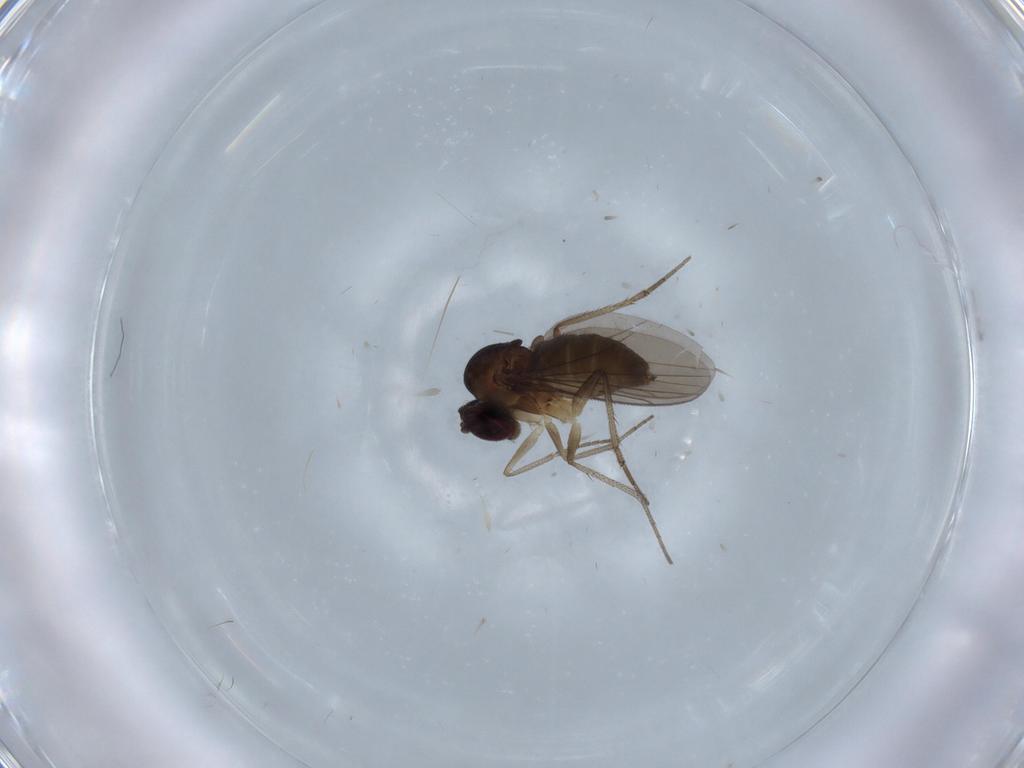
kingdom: Animalia
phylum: Arthropoda
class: Insecta
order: Diptera
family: Dolichopodidae
